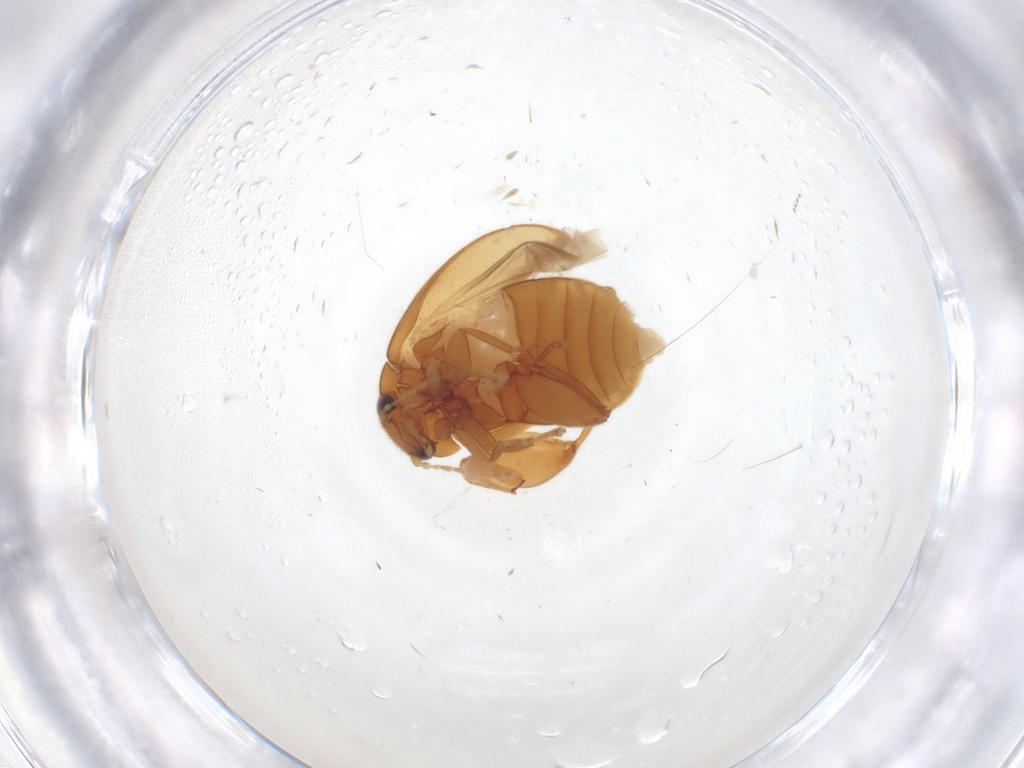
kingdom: Animalia
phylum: Arthropoda
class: Insecta
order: Coleoptera
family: Scirtidae
